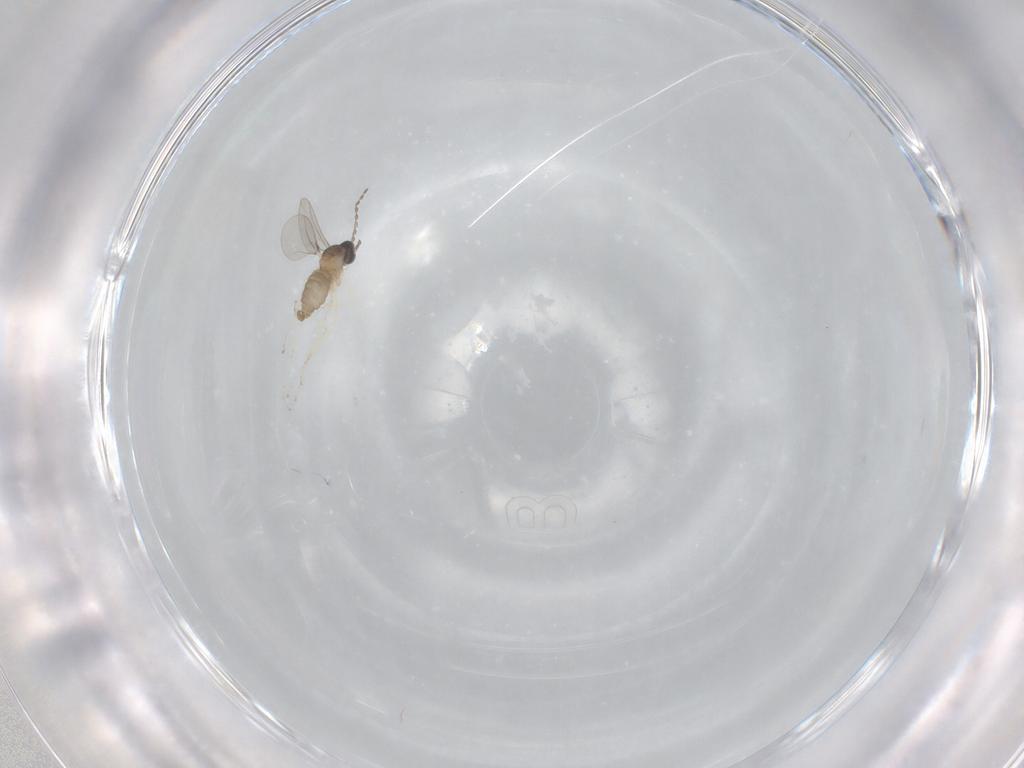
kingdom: Animalia
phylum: Arthropoda
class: Insecta
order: Diptera
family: Cecidomyiidae
